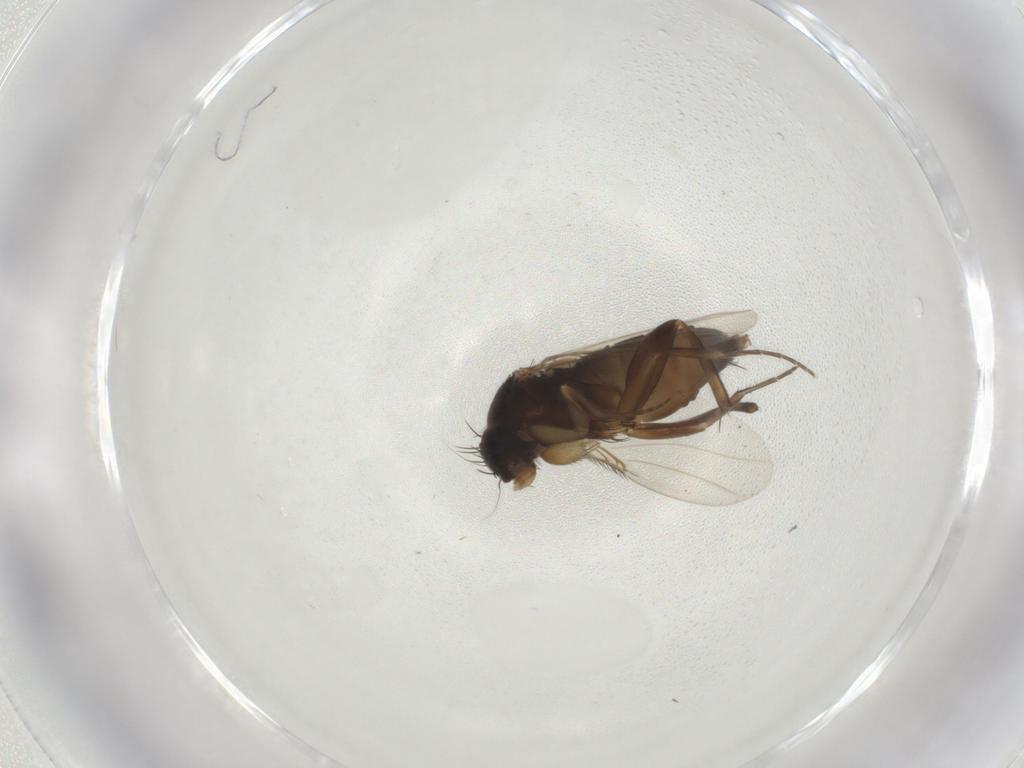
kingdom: Animalia
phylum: Arthropoda
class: Insecta
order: Diptera
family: Phoridae
